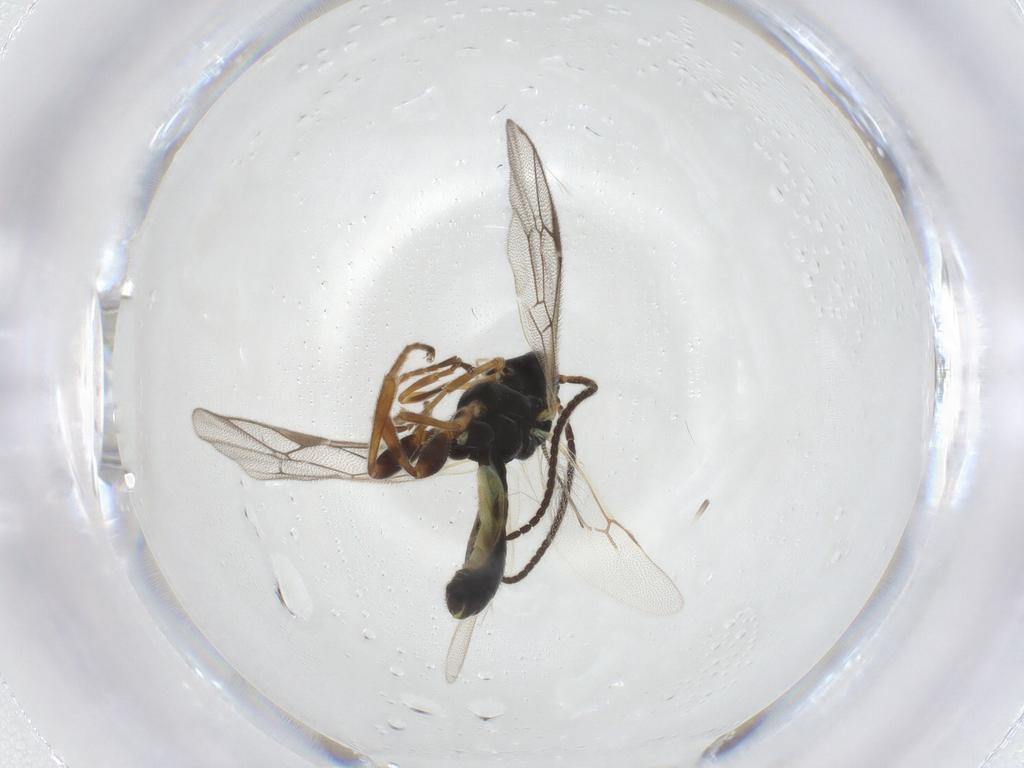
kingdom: Animalia
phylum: Arthropoda
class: Insecta
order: Hymenoptera
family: Ichneumonidae
